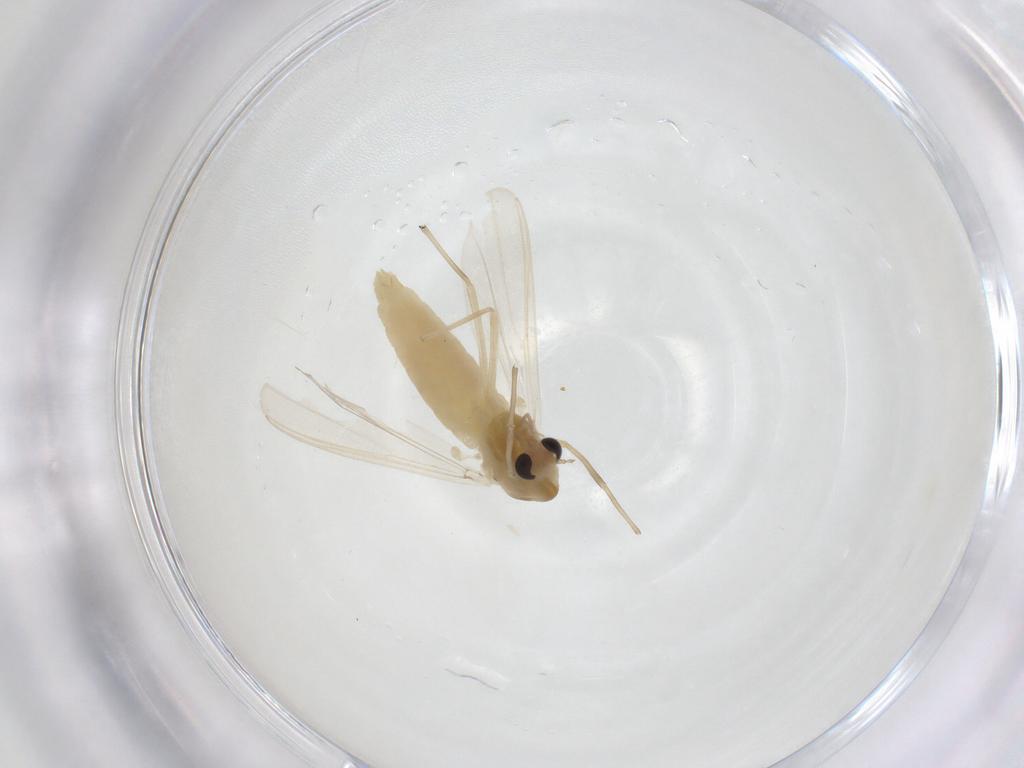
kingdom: Animalia
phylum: Arthropoda
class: Insecta
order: Diptera
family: Chironomidae
